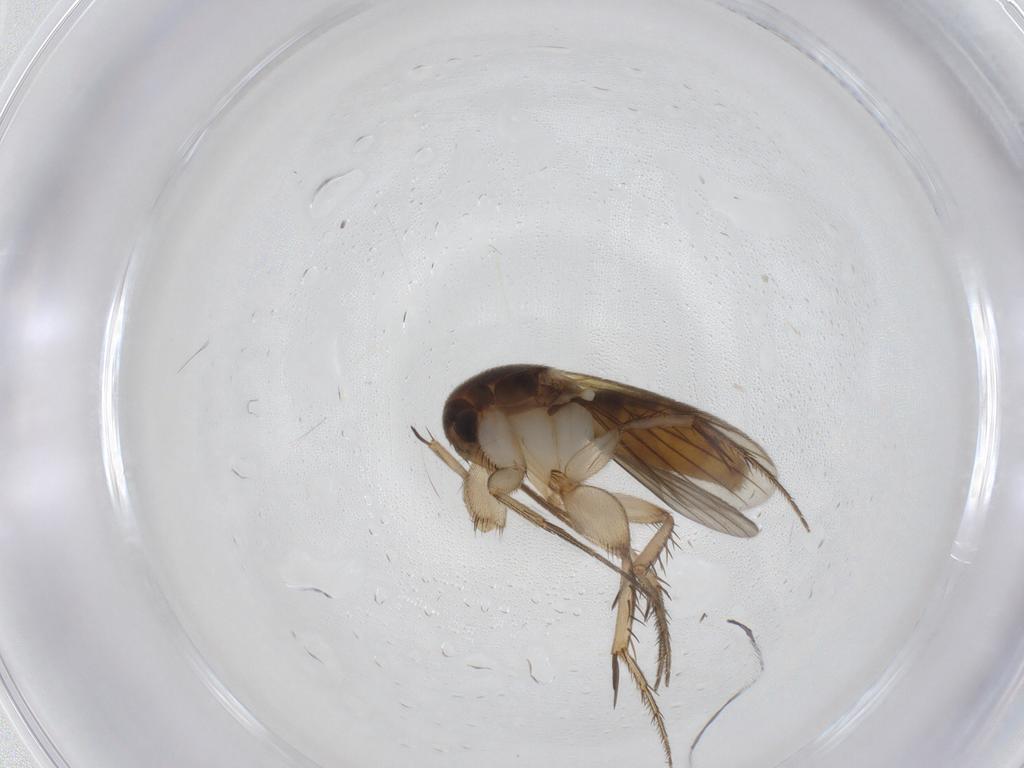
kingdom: Animalia
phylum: Arthropoda
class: Insecta
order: Diptera
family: Mycetophilidae
